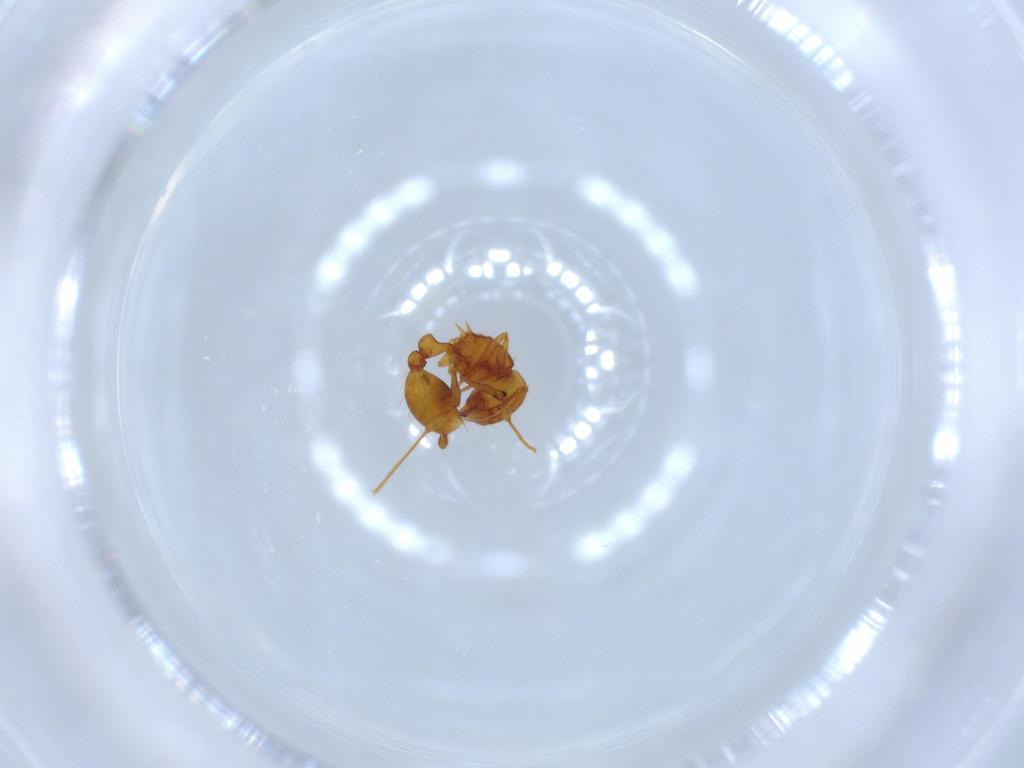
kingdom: Animalia
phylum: Arthropoda
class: Insecta
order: Hymenoptera
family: Formicidae
